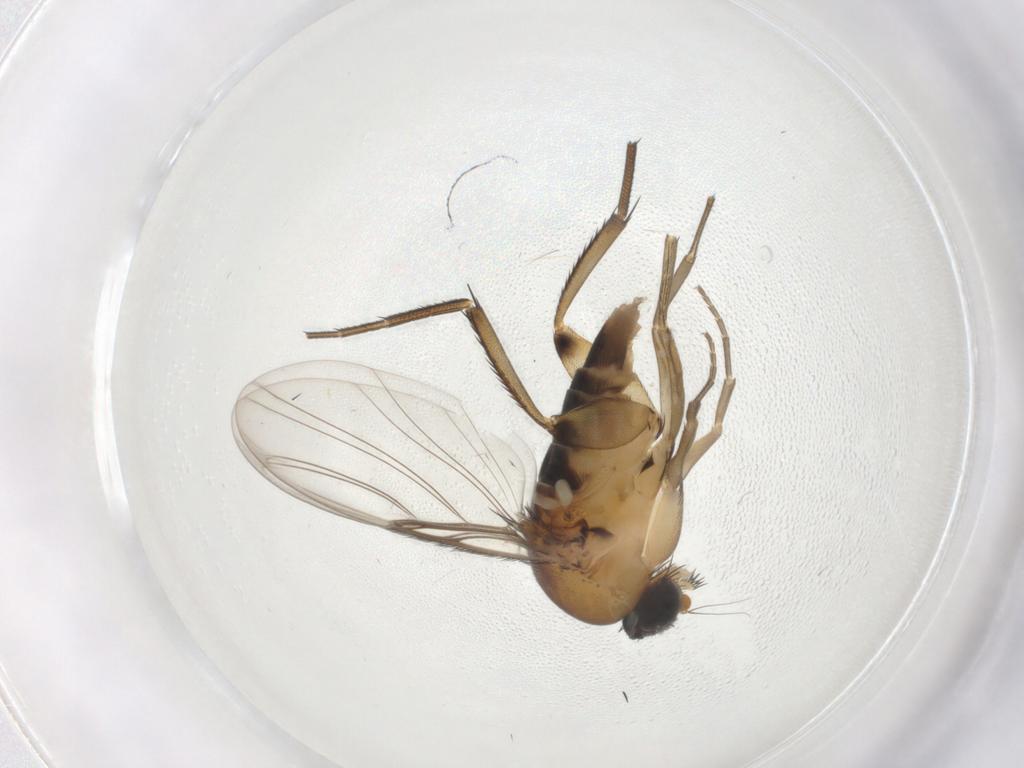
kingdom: Animalia
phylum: Arthropoda
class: Insecta
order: Diptera
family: Phoridae
